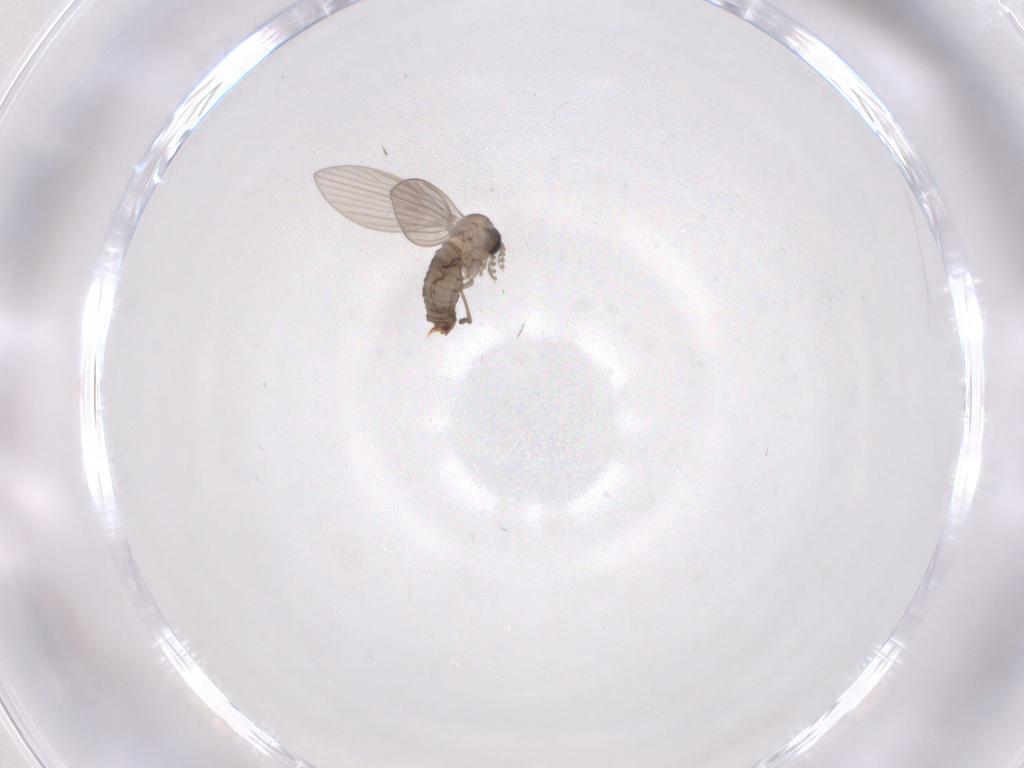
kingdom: Animalia
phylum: Arthropoda
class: Insecta
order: Diptera
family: Psychodidae
